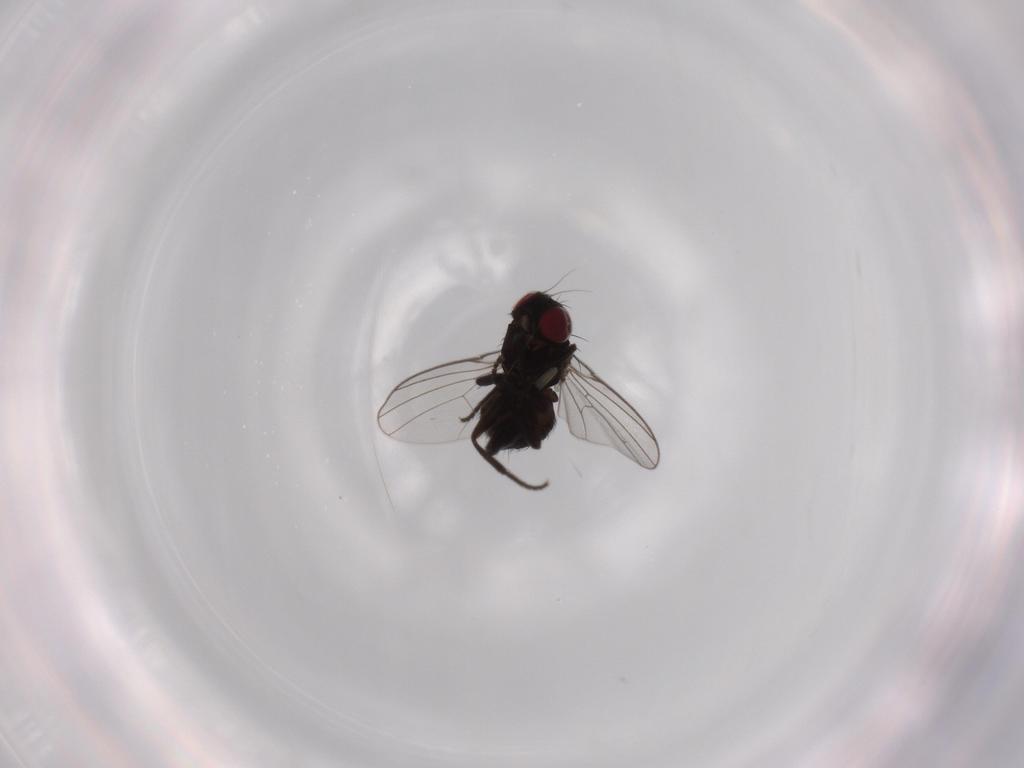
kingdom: Animalia
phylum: Arthropoda
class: Insecta
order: Diptera
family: Agromyzidae
